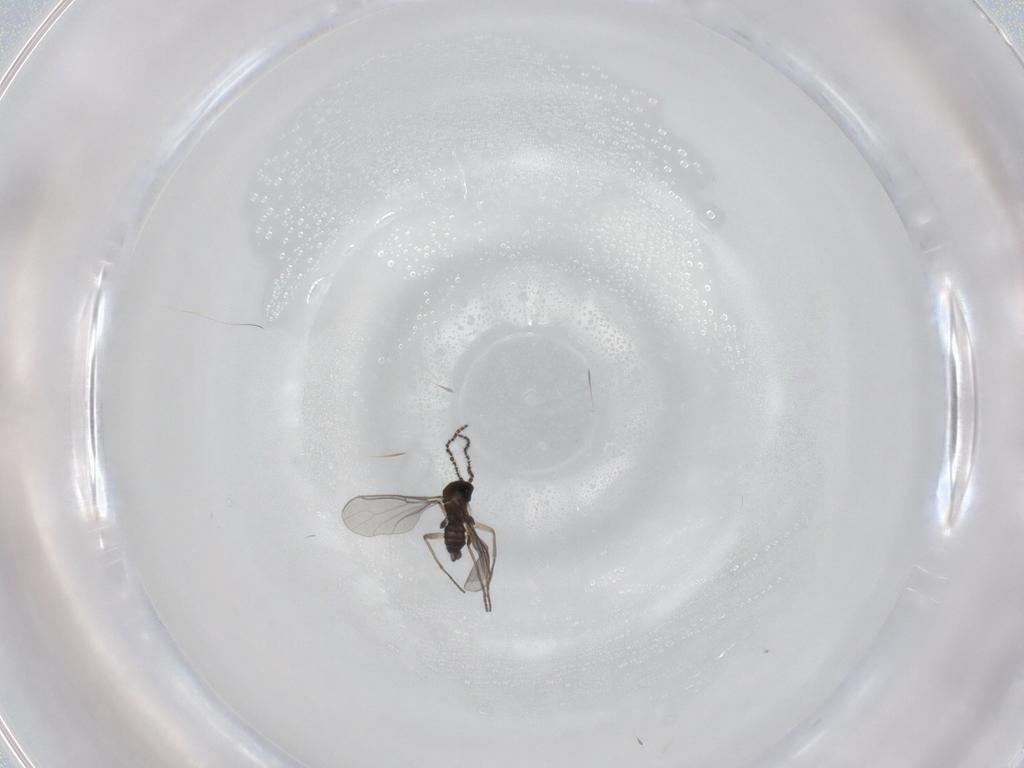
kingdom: Animalia
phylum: Arthropoda
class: Insecta
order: Diptera
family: Sciaridae
